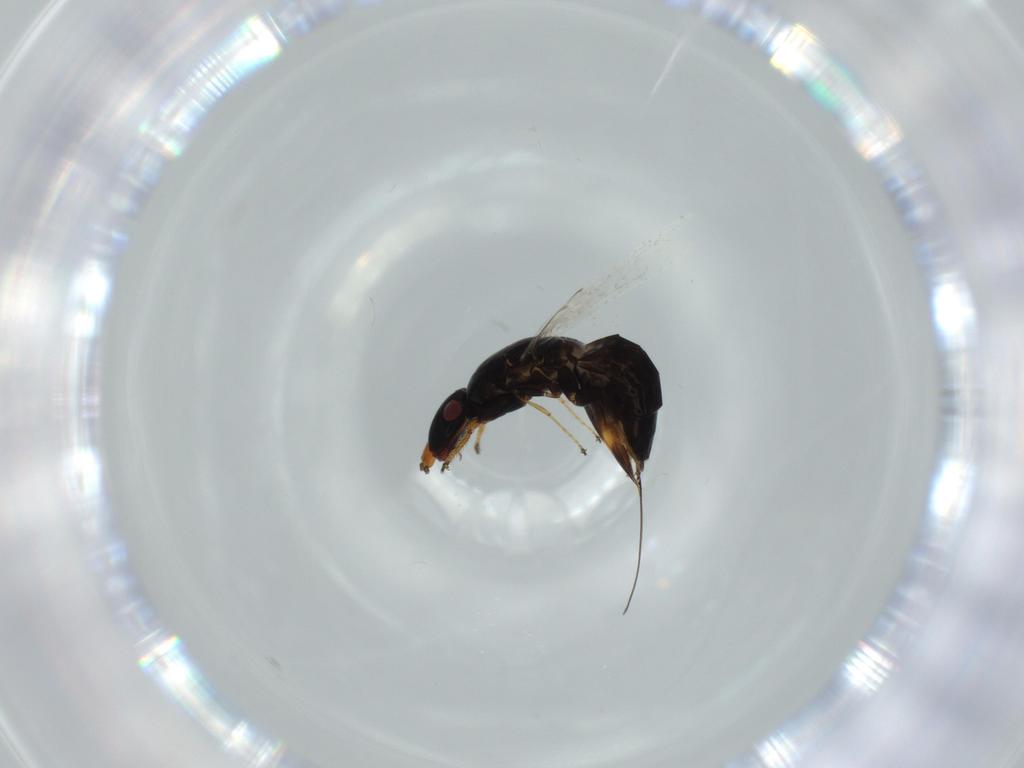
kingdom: Animalia
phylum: Arthropoda
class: Insecta
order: Hymenoptera
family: Agaonidae
